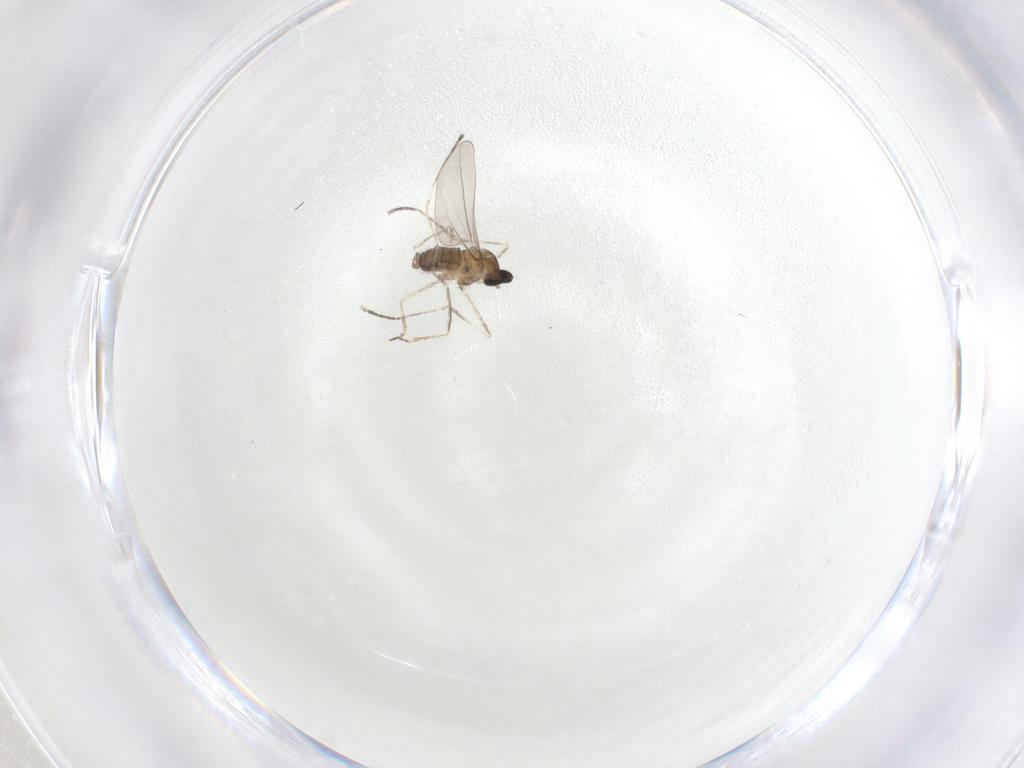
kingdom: Animalia
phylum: Arthropoda
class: Insecta
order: Diptera
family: Cecidomyiidae
